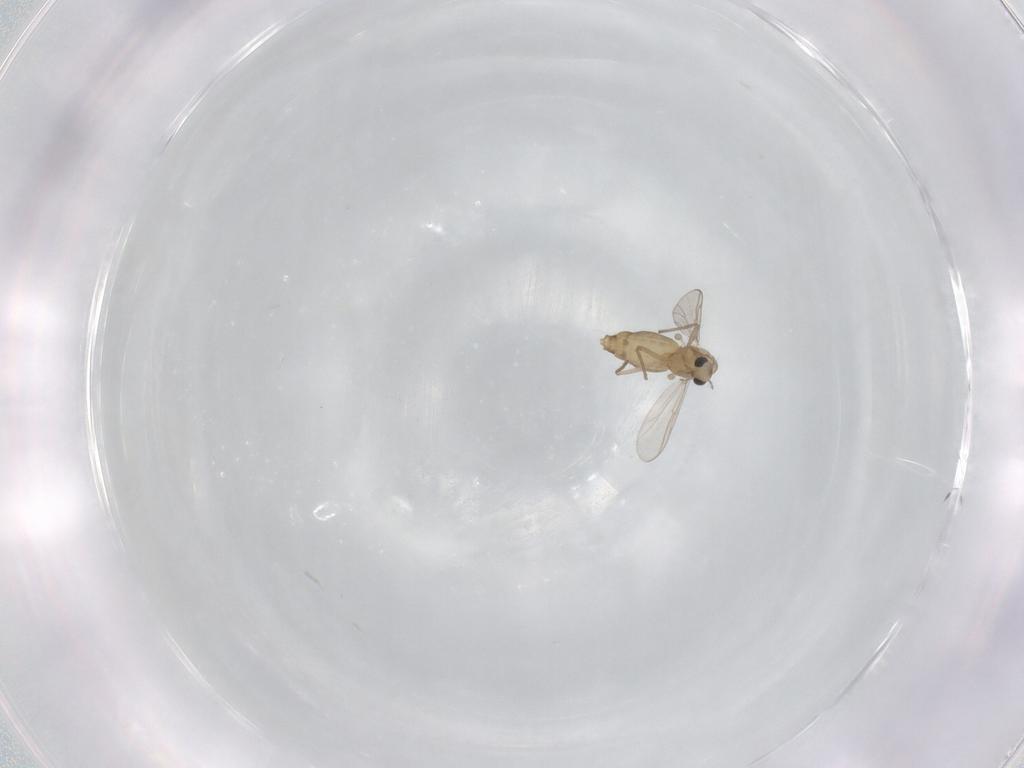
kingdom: Animalia
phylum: Arthropoda
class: Insecta
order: Diptera
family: Chironomidae
